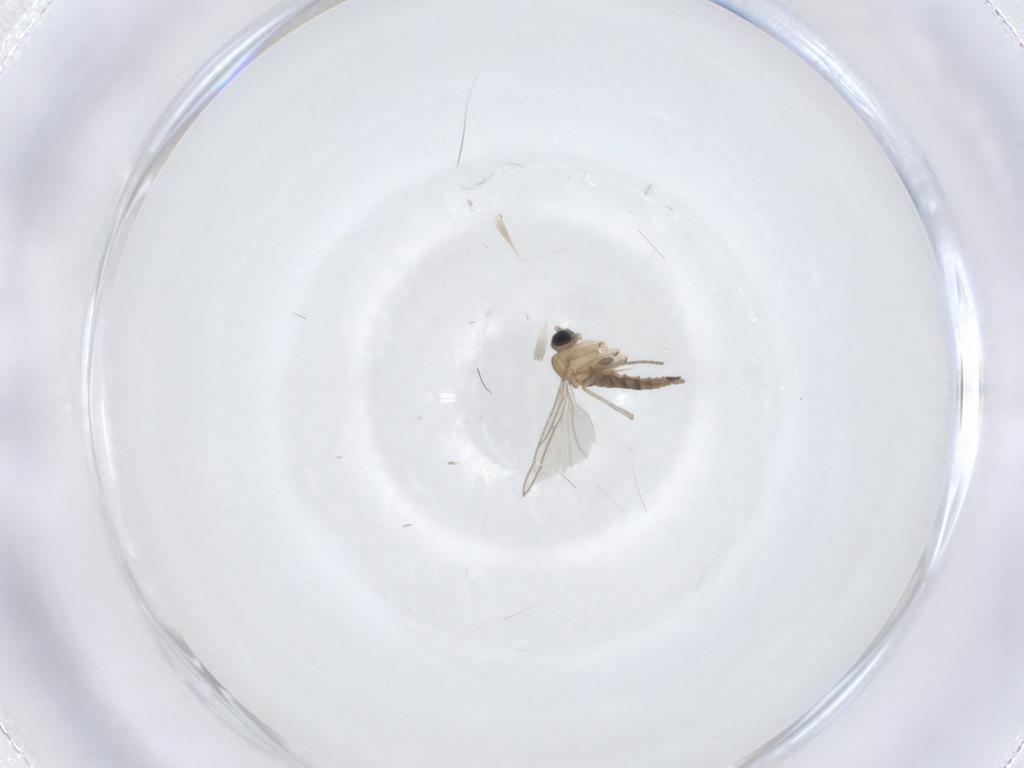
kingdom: Animalia
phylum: Arthropoda
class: Insecta
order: Diptera
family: Sciaridae
